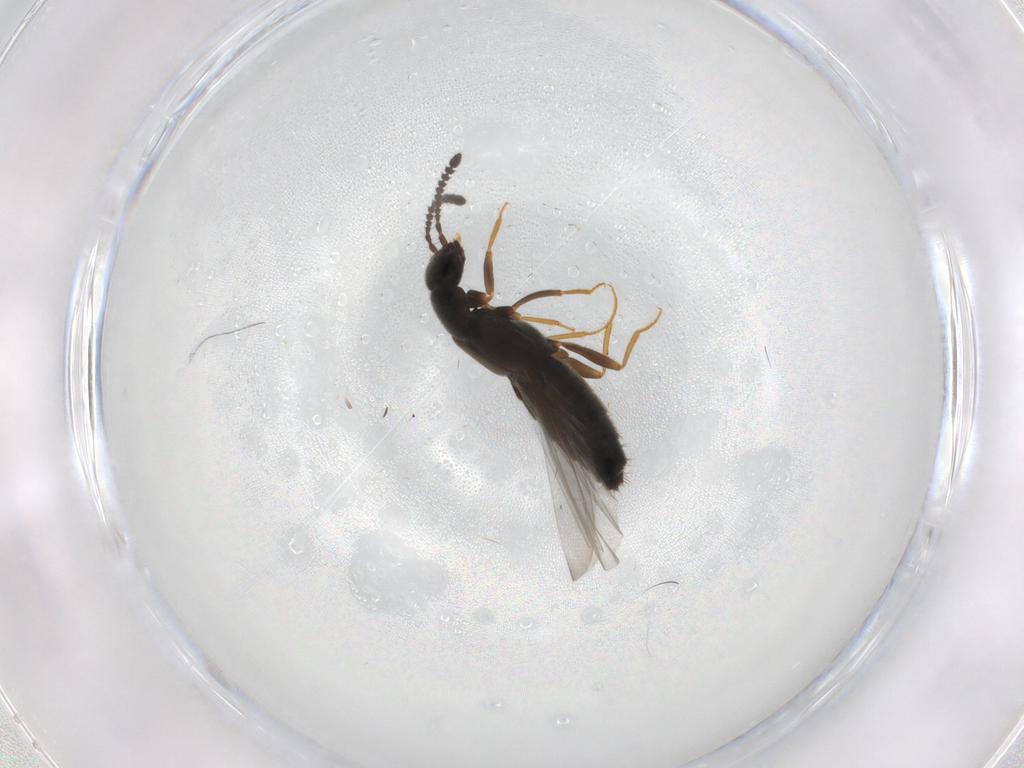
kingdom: Animalia
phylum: Arthropoda
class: Insecta
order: Coleoptera
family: Staphylinidae
